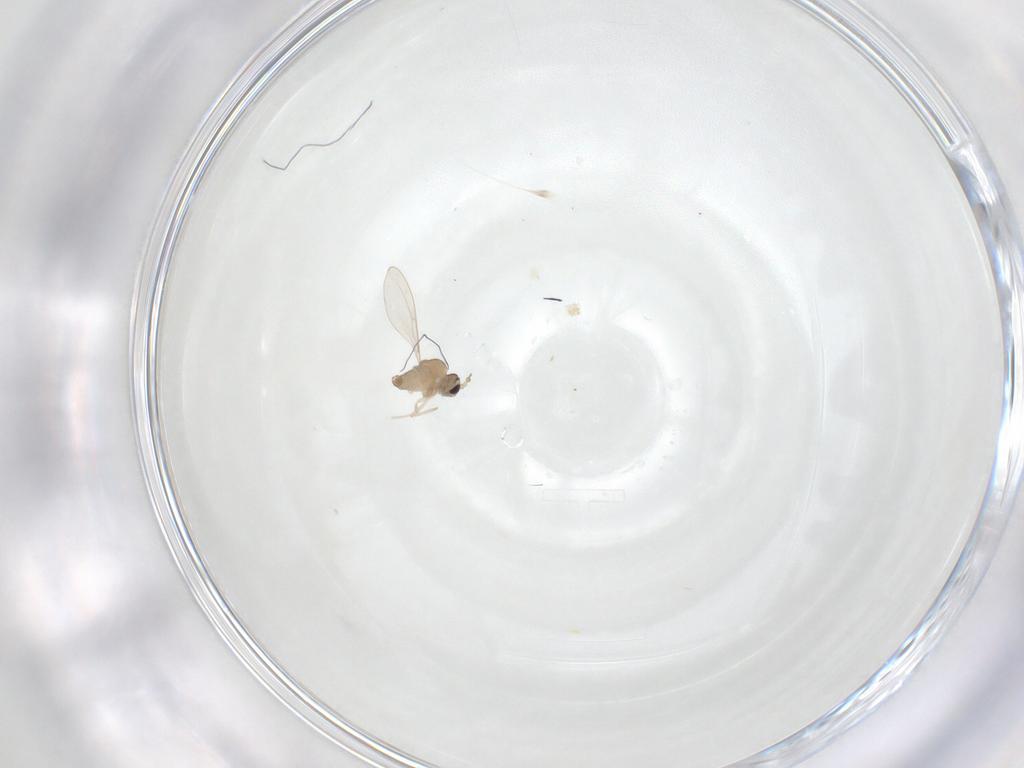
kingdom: Animalia
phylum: Arthropoda
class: Insecta
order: Diptera
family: Cecidomyiidae
